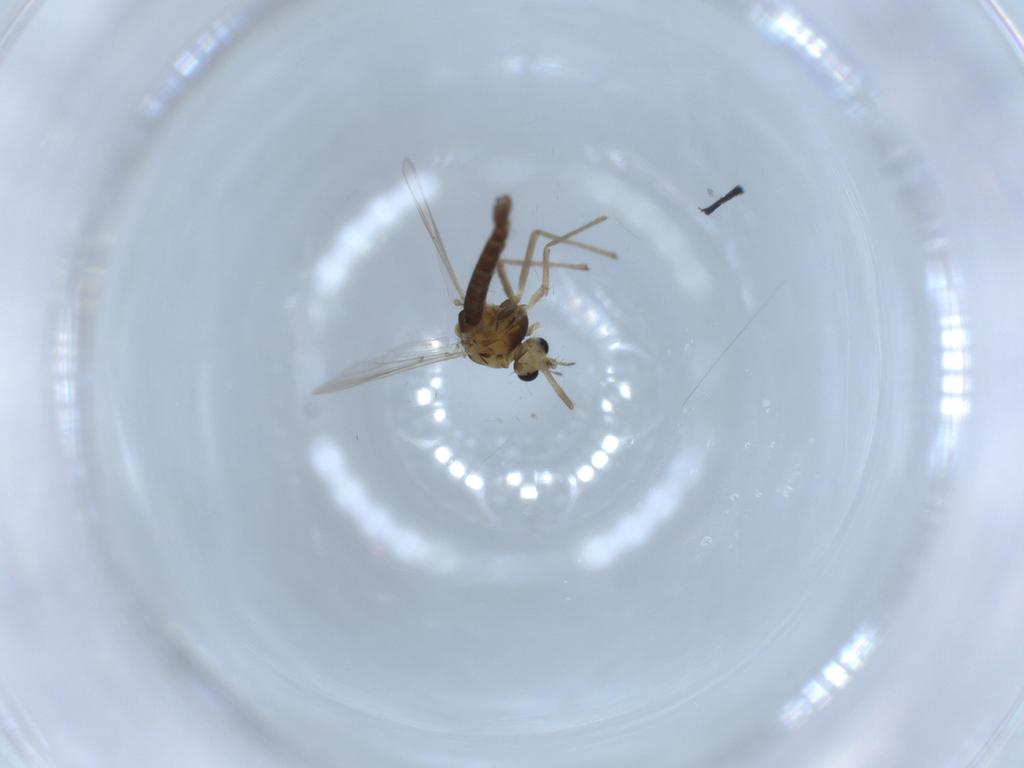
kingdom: Animalia
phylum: Arthropoda
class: Insecta
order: Diptera
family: Chironomidae
